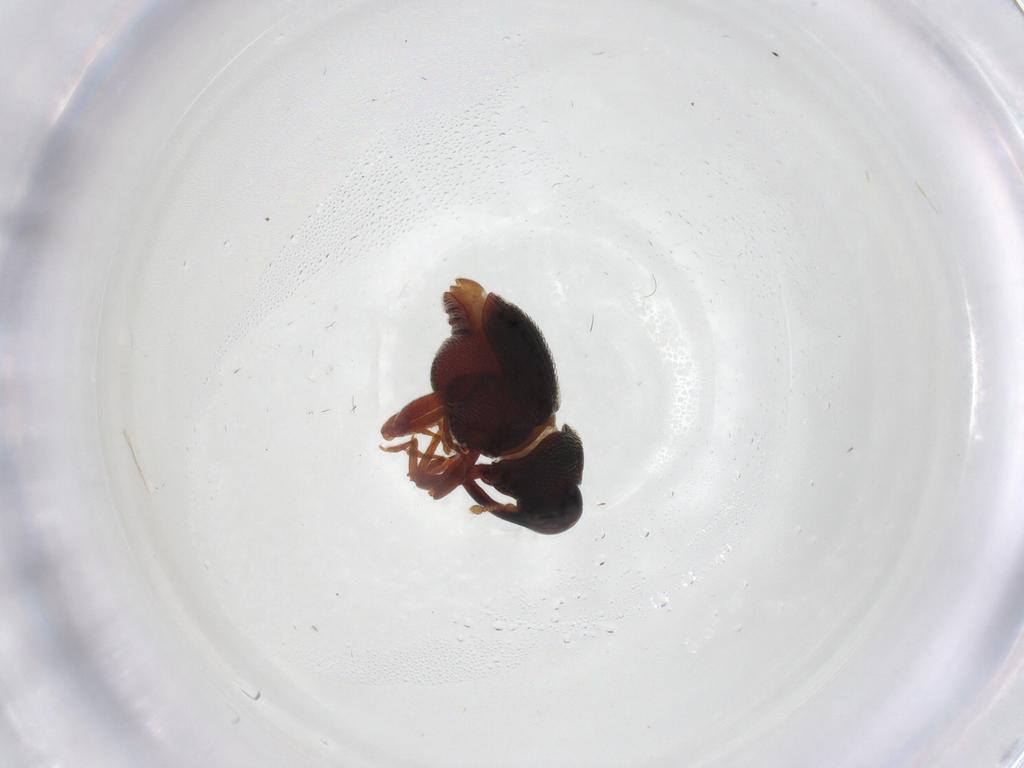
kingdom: Animalia
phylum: Arthropoda
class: Insecta
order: Coleoptera
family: Curculionidae
